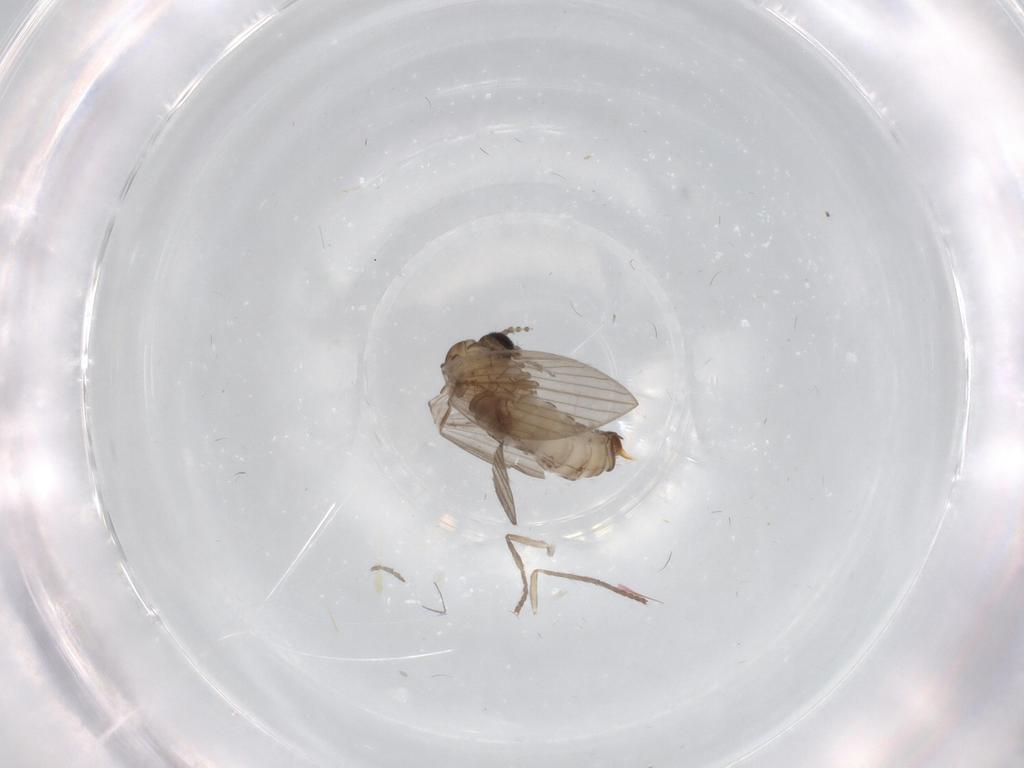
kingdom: Animalia
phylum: Arthropoda
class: Insecta
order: Diptera
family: Psychodidae
